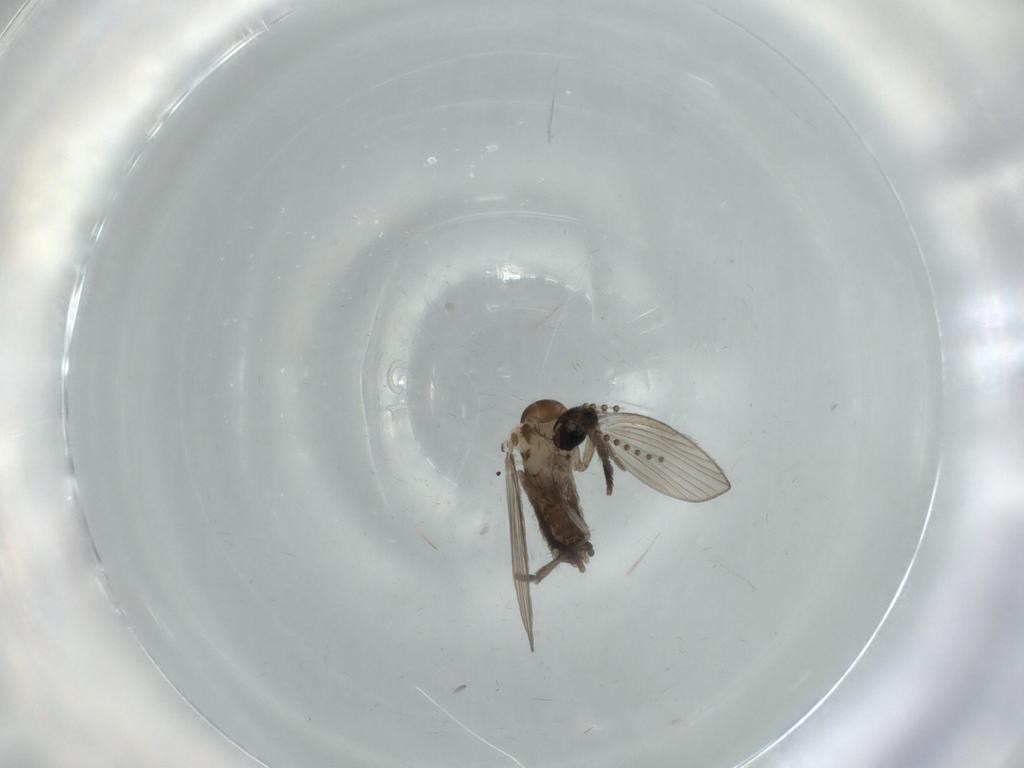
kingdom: Animalia
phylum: Arthropoda
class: Insecta
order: Diptera
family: Psychodidae
